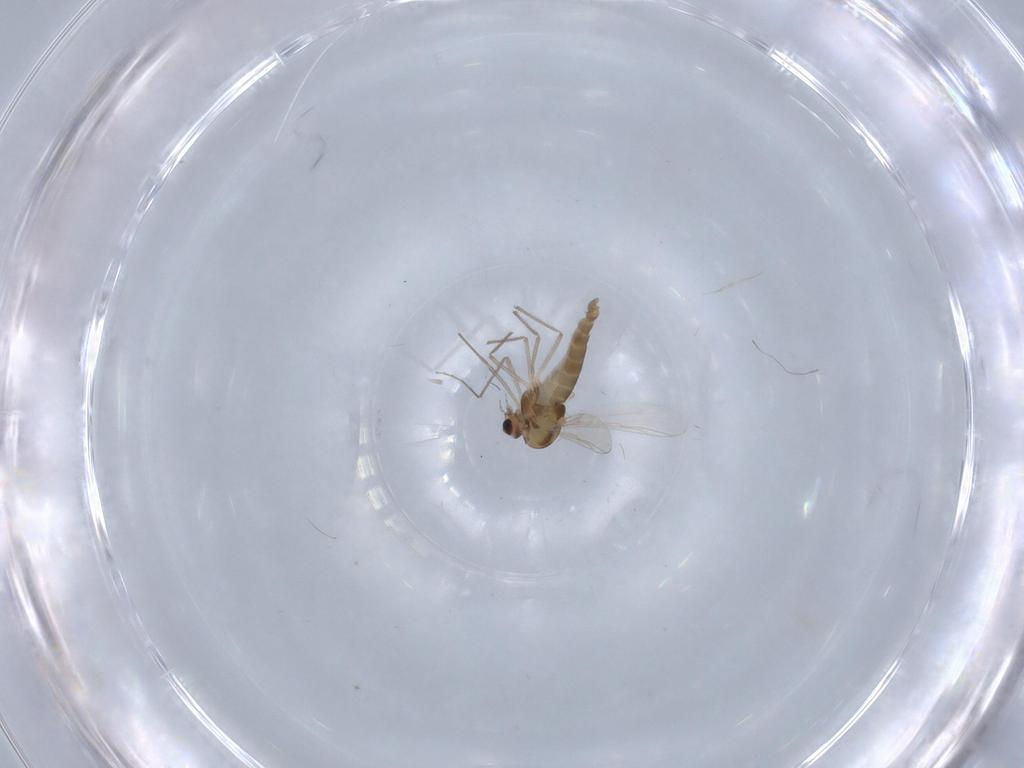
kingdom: Animalia
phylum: Arthropoda
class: Insecta
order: Diptera
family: Chironomidae
